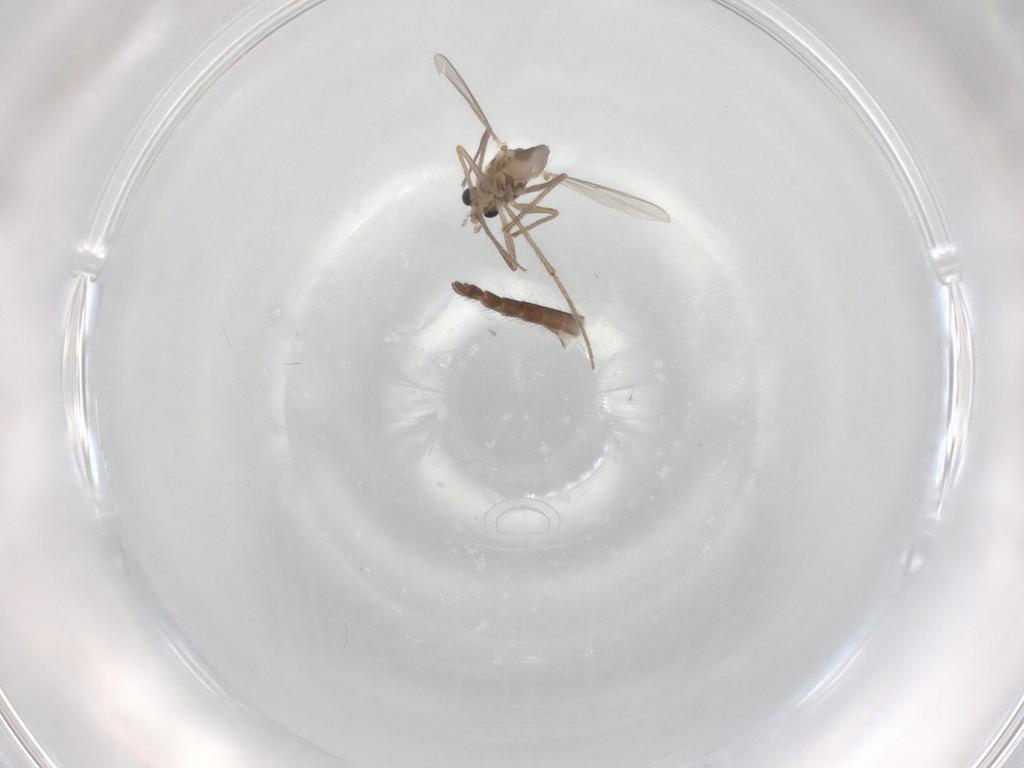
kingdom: Animalia
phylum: Arthropoda
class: Insecta
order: Diptera
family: Chironomidae
